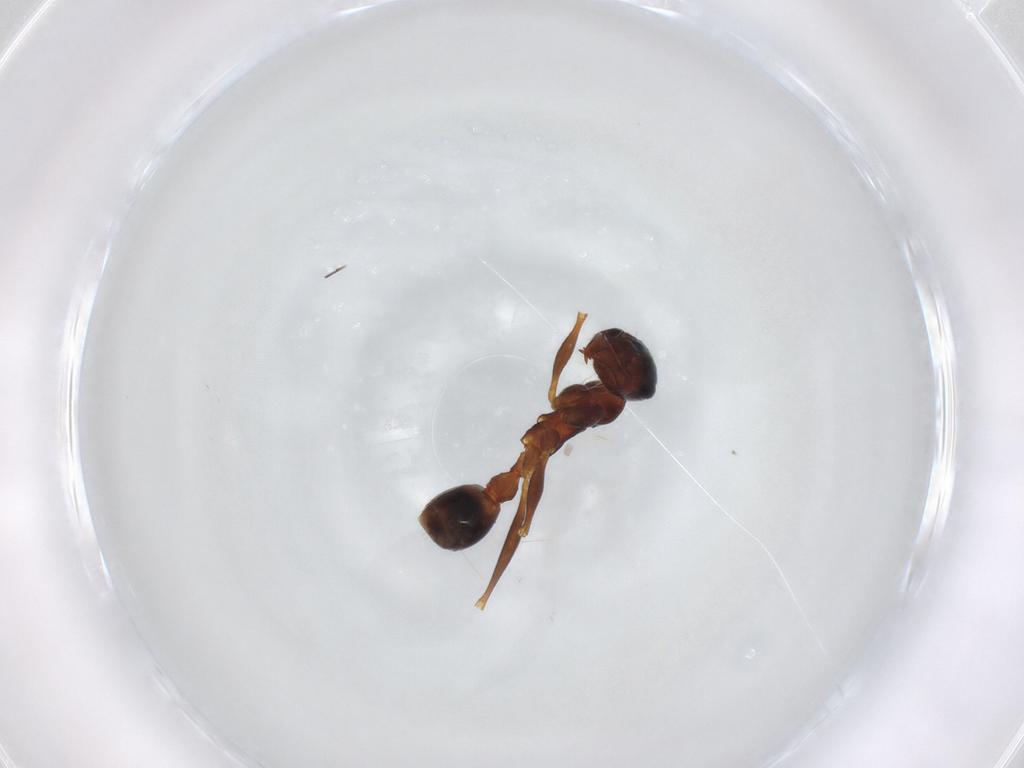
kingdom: Animalia
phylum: Arthropoda
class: Insecta
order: Hymenoptera
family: Formicidae
